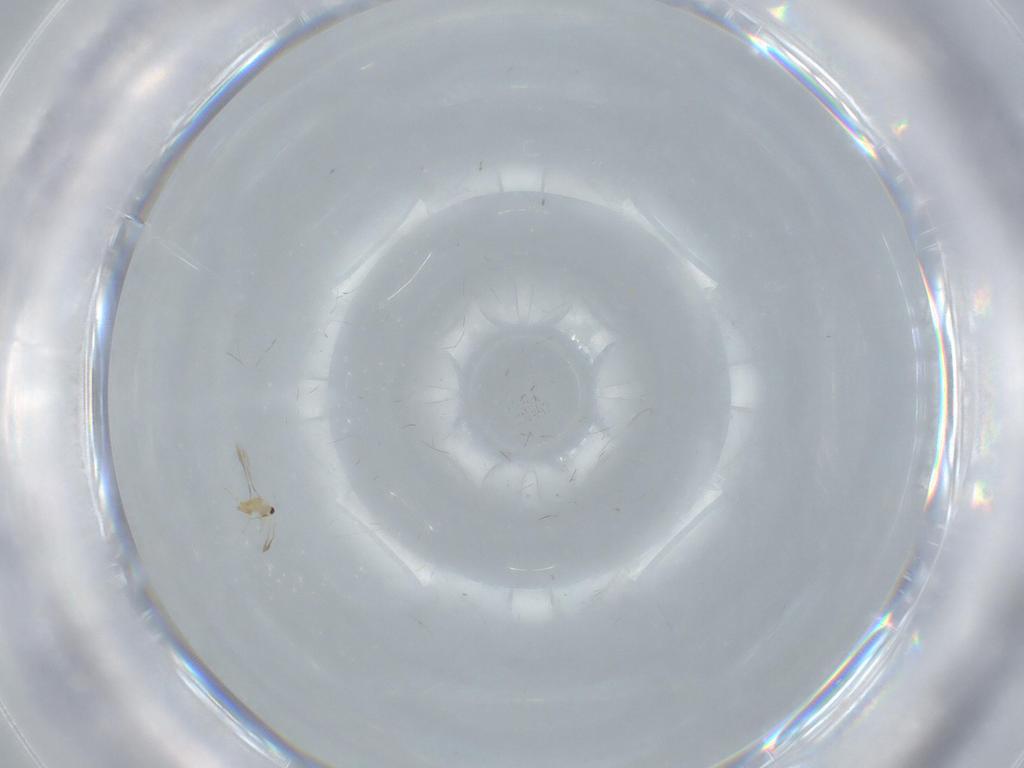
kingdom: Animalia
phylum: Arthropoda
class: Insecta
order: Hymenoptera
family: Mymaridae
